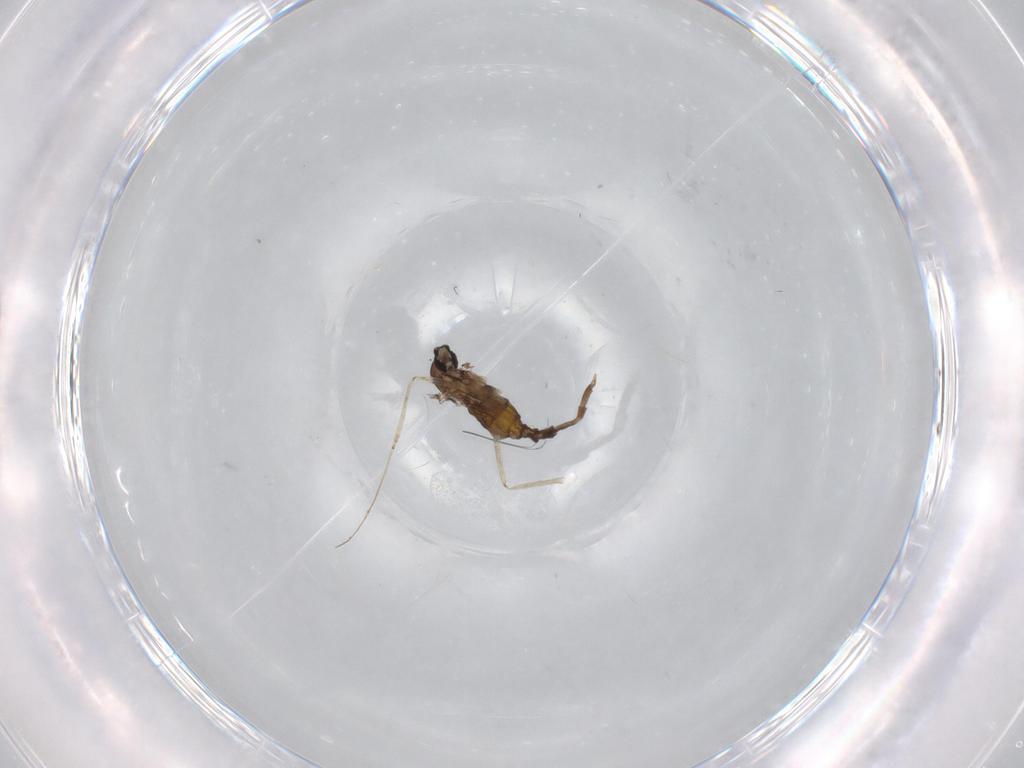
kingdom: Animalia
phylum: Arthropoda
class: Insecta
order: Diptera
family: Cecidomyiidae
